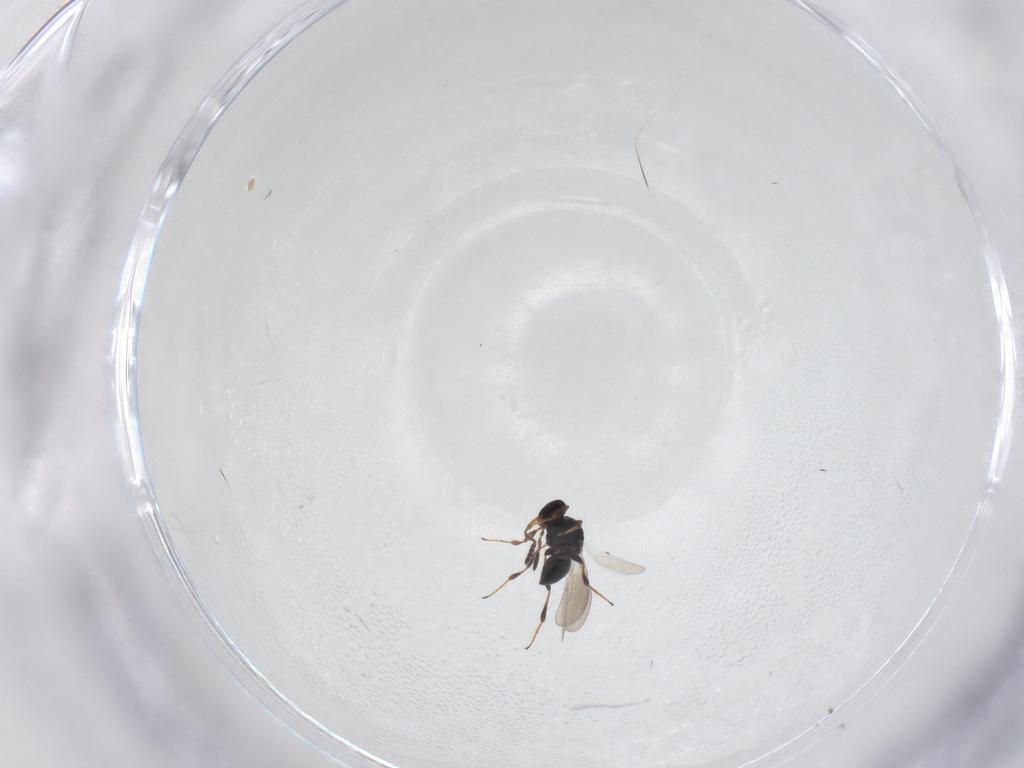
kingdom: Animalia
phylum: Arthropoda
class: Insecta
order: Hymenoptera
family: Platygastridae
